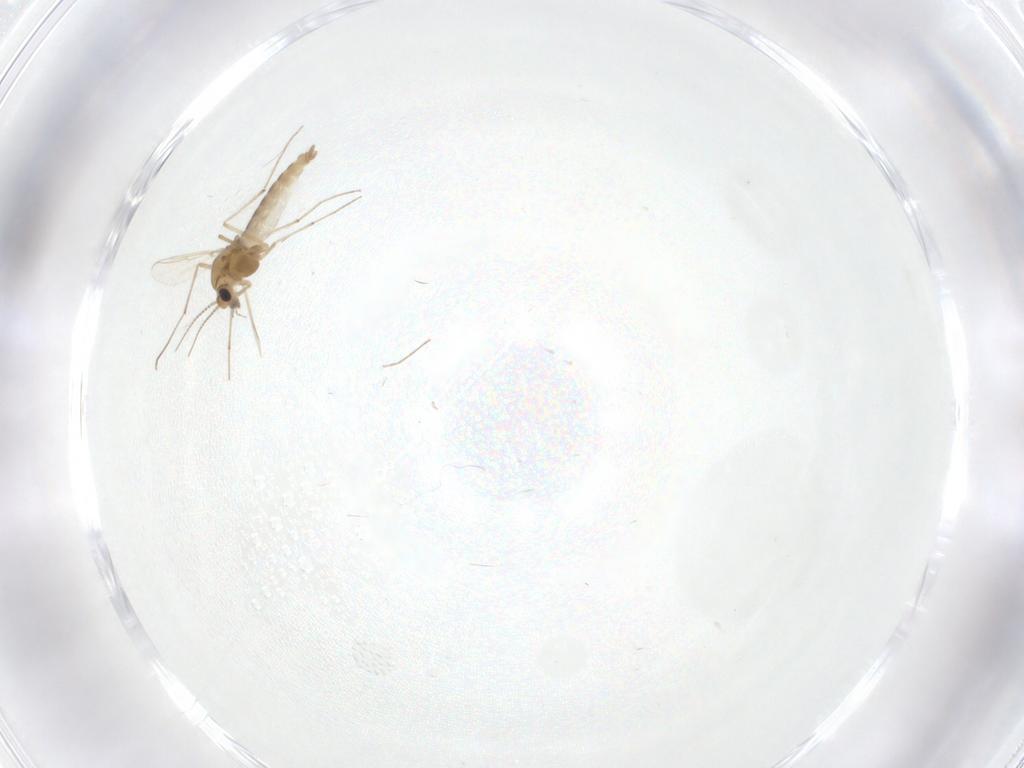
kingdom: Animalia
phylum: Arthropoda
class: Insecta
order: Diptera
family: Chironomidae
